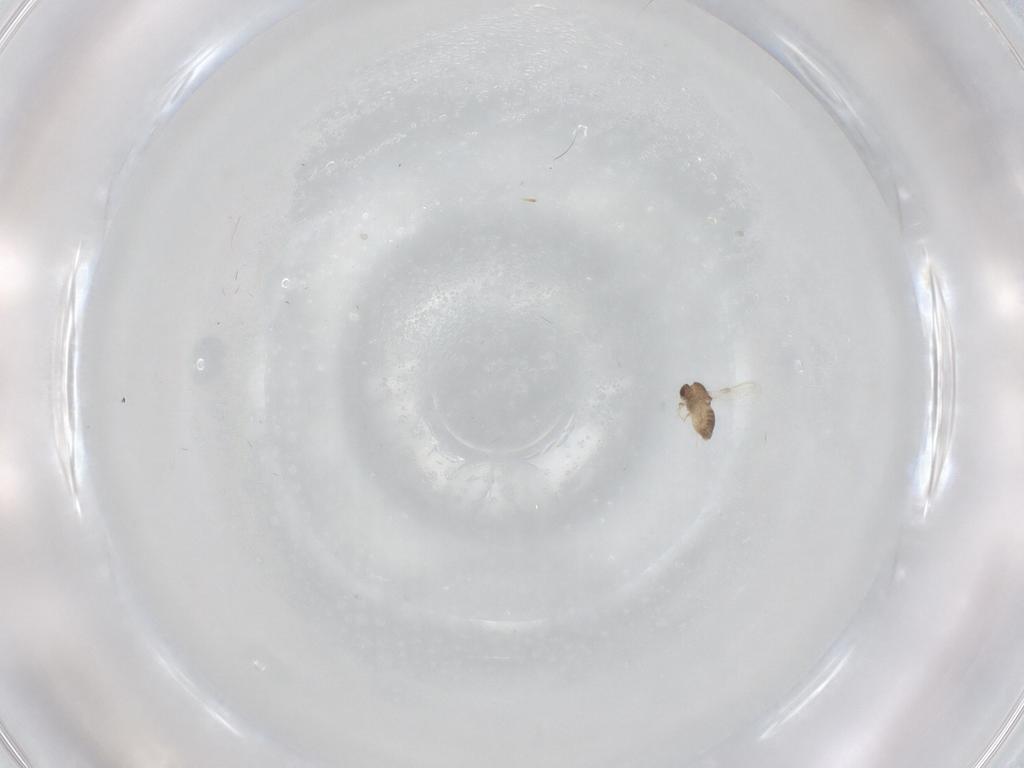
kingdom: Animalia
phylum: Arthropoda
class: Insecta
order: Diptera
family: Chironomidae
